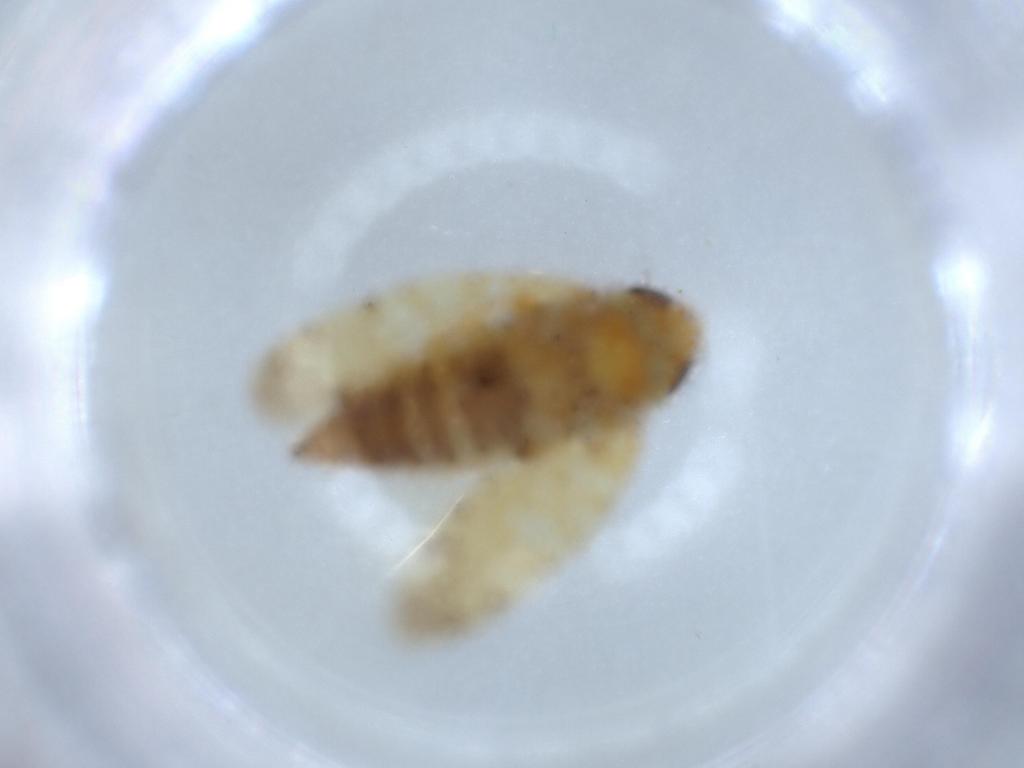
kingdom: Animalia
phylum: Arthropoda
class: Insecta
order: Hemiptera
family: Cicadellidae
